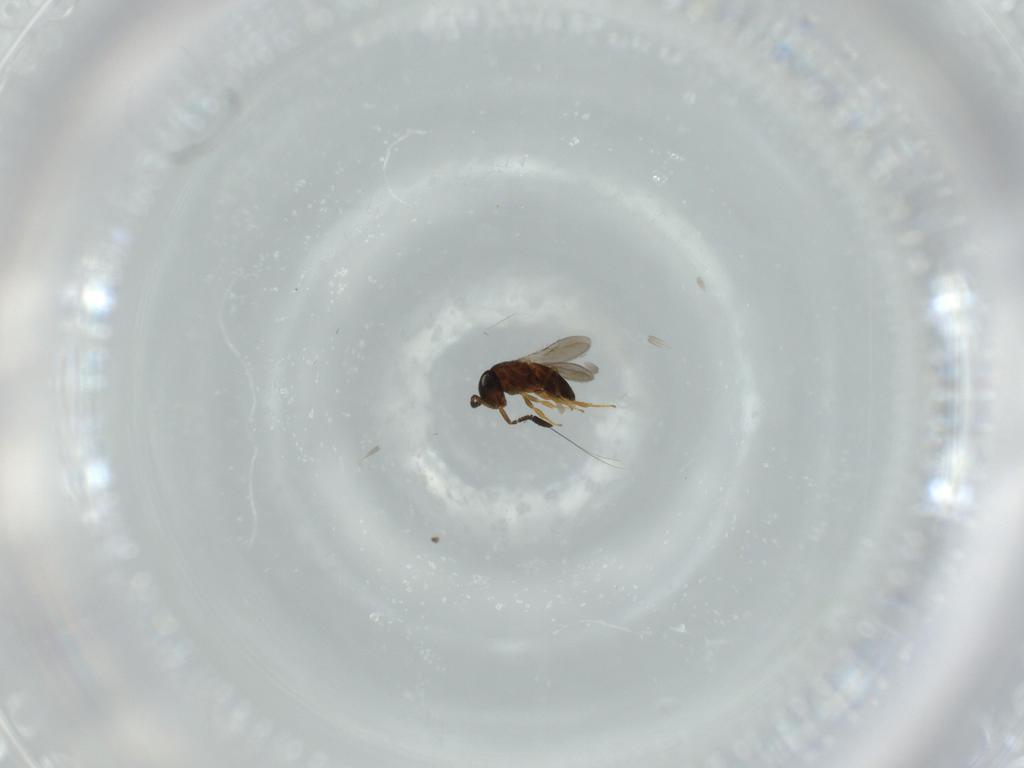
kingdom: Animalia
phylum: Arthropoda
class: Insecta
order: Hymenoptera
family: Scelionidae
